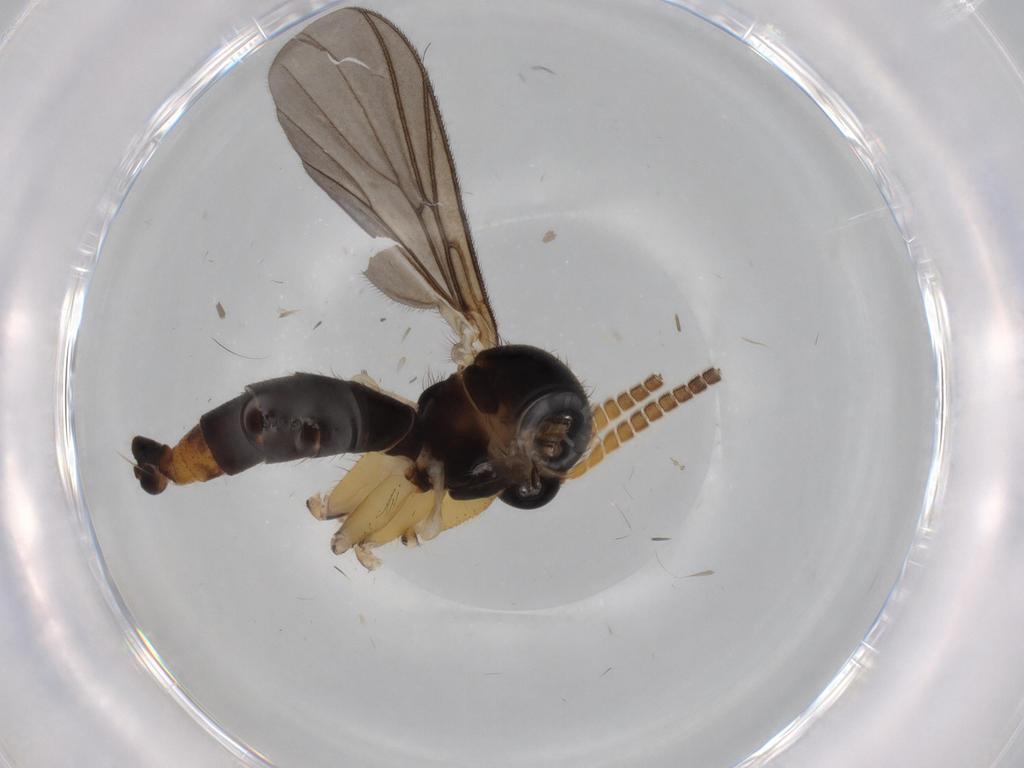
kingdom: Animalia
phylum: Arthropoda
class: Insecta
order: Diptera
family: Mycetophilidae
